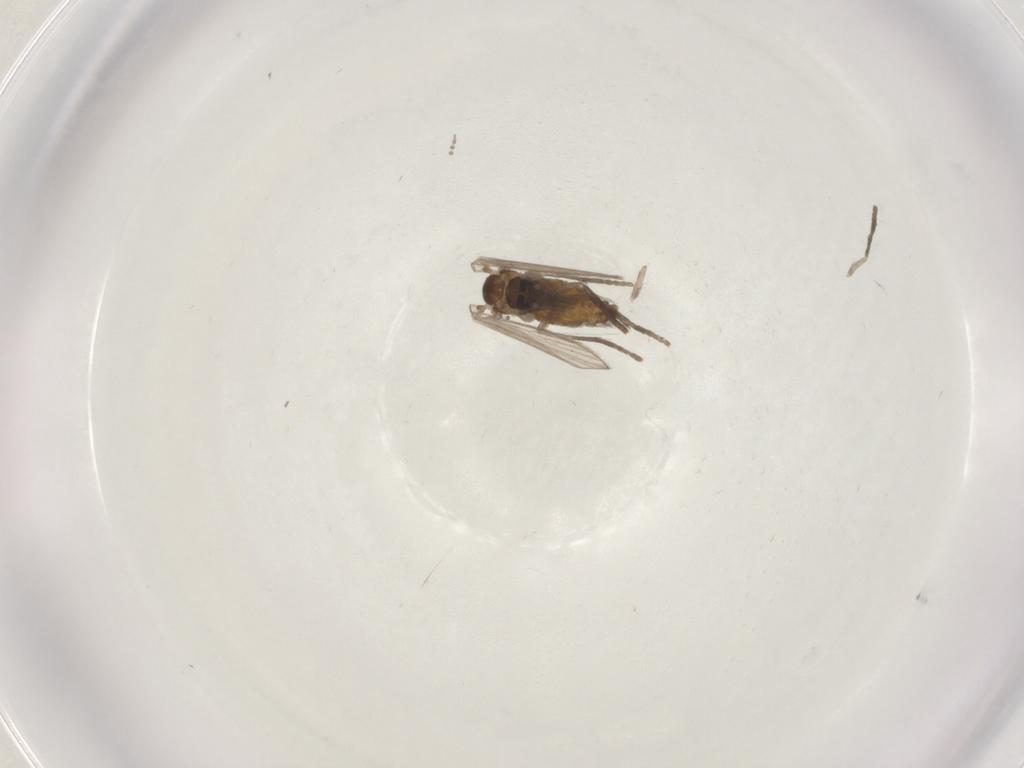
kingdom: Animalia
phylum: Arthropoda
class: Insecta
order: Diptera
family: Psychodidae
